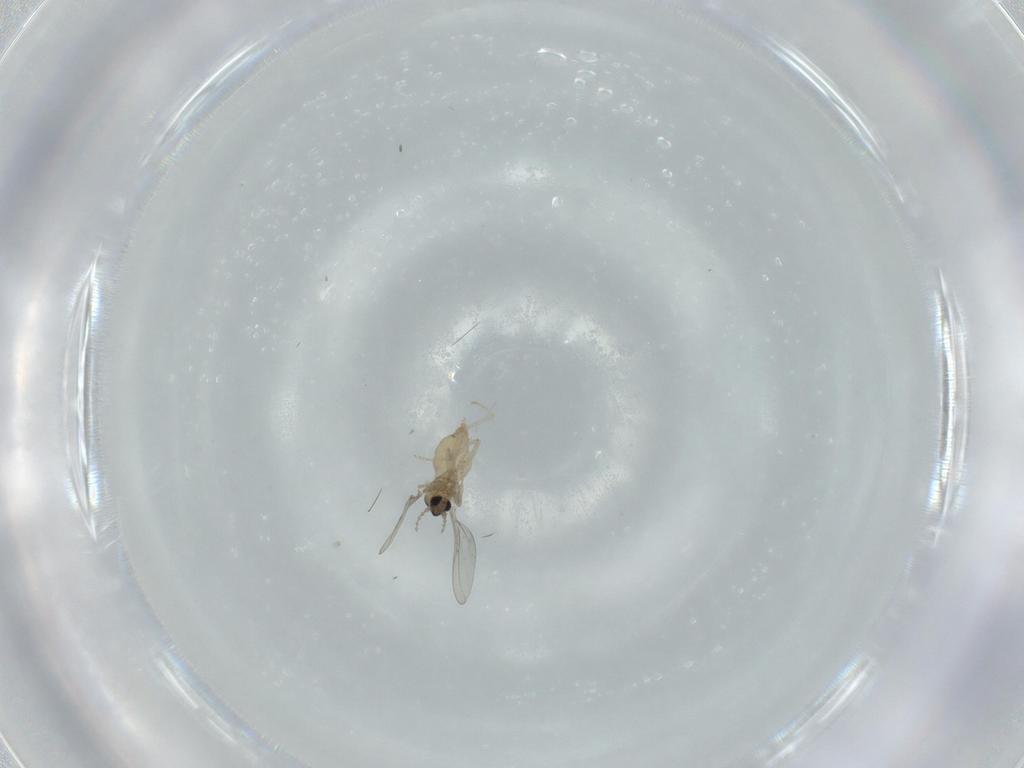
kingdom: Animalia
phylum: Arthropoda
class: Insecta
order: Diptera
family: Cecidomyiidae
